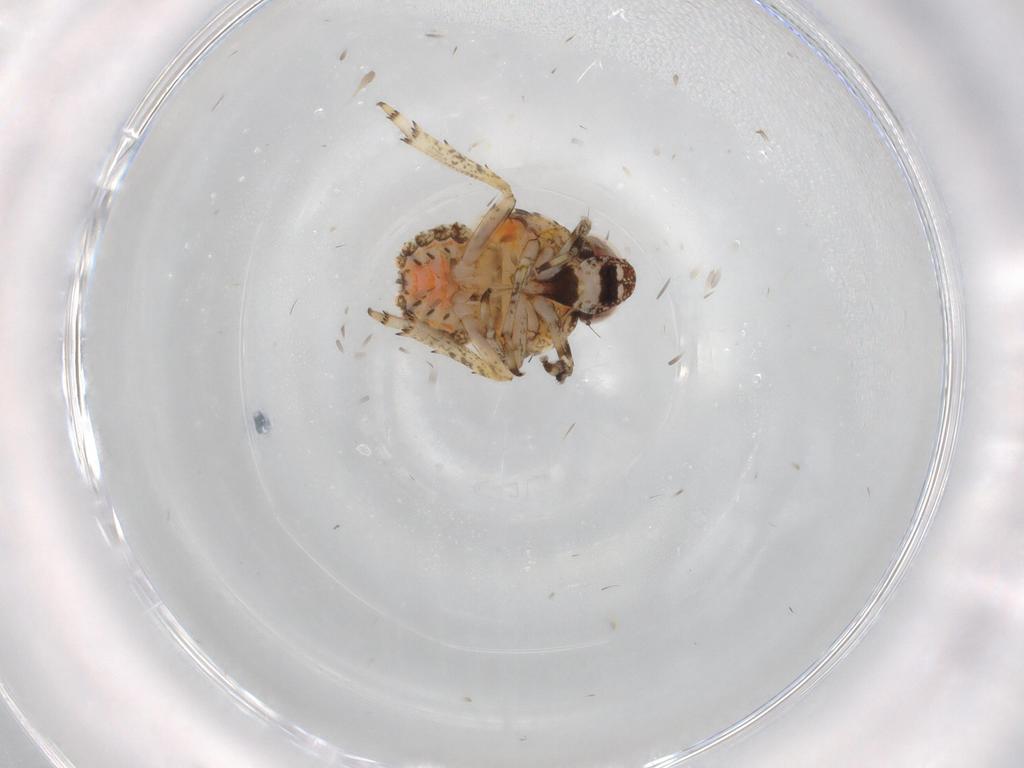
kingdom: Animalia
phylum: Arthropoda
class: Insecta
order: Hemiptera
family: Issidae
